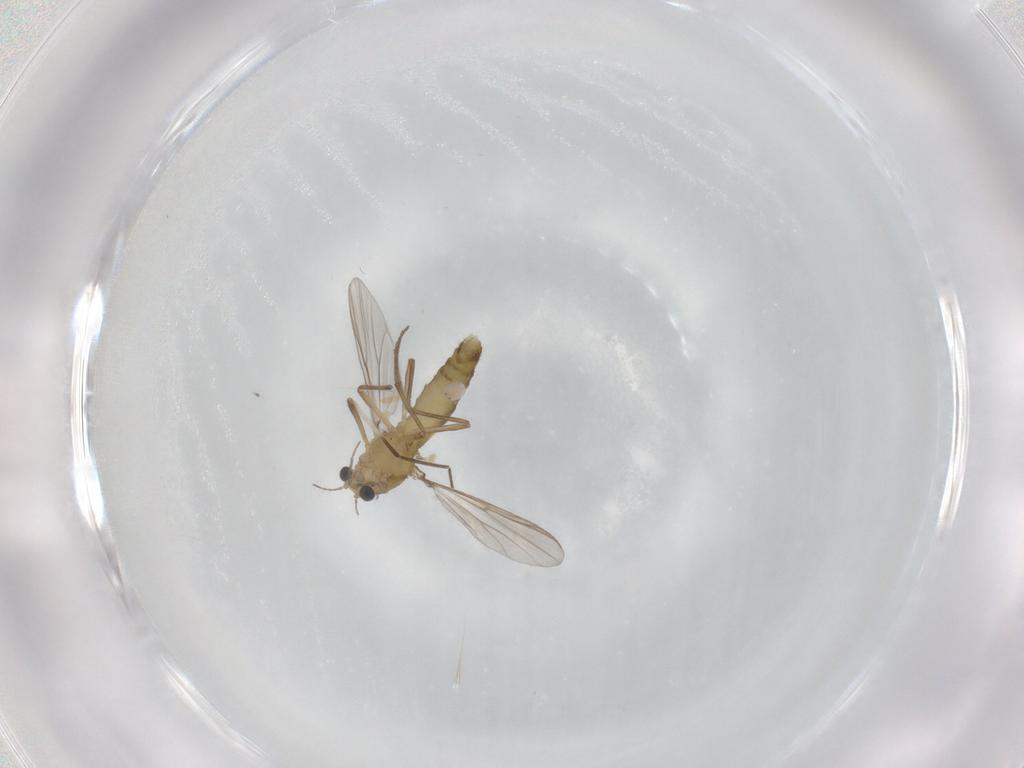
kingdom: Animalia
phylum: Arthropoda
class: Insecta
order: Diptera
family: Chironomidae
